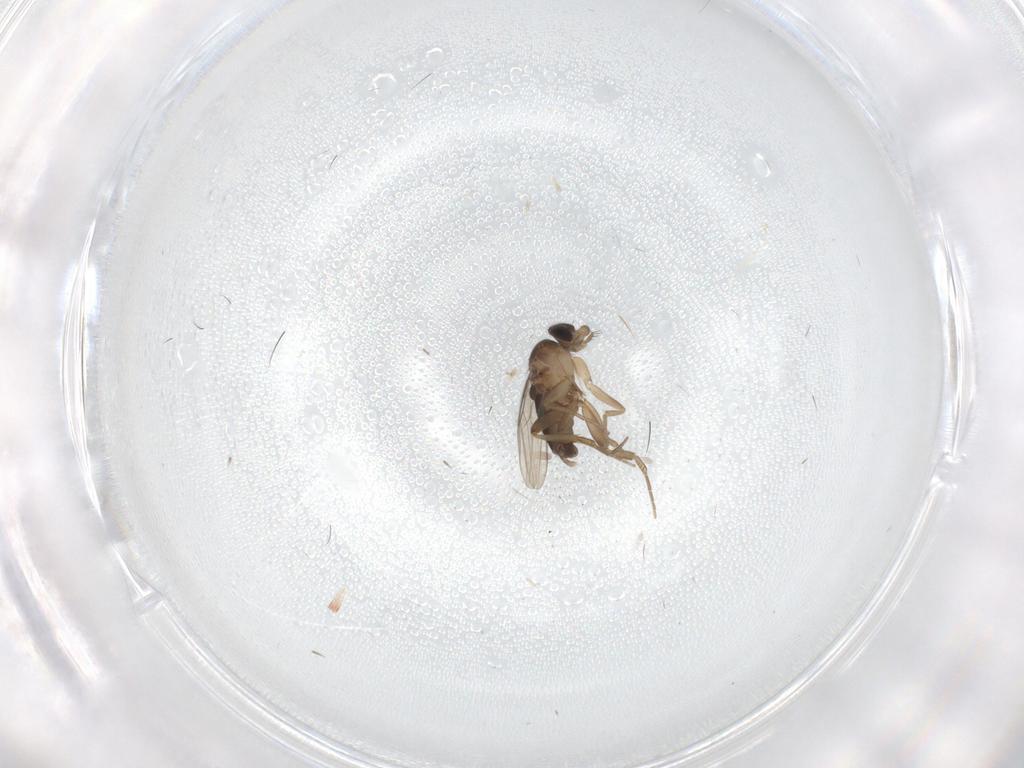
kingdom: Animalia
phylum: Arthropoda
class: Insecta
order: Diptera
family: Phoridae
